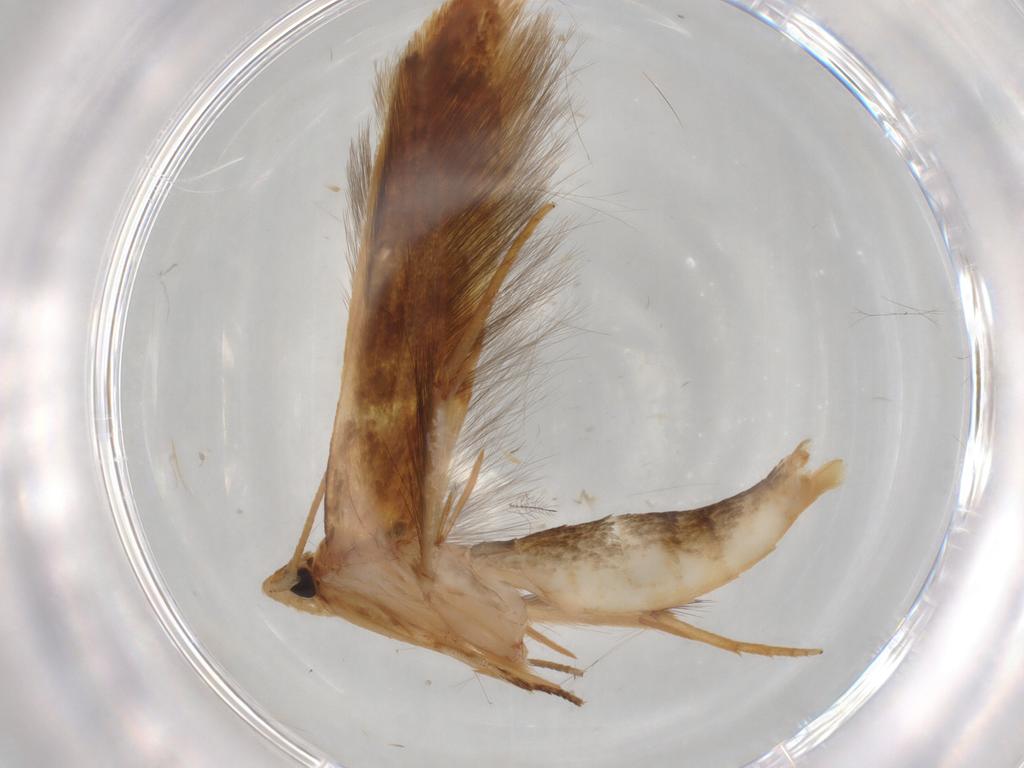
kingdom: Animalia
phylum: Arthropoda
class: Insecta
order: Lepidoptera
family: Tineidae
